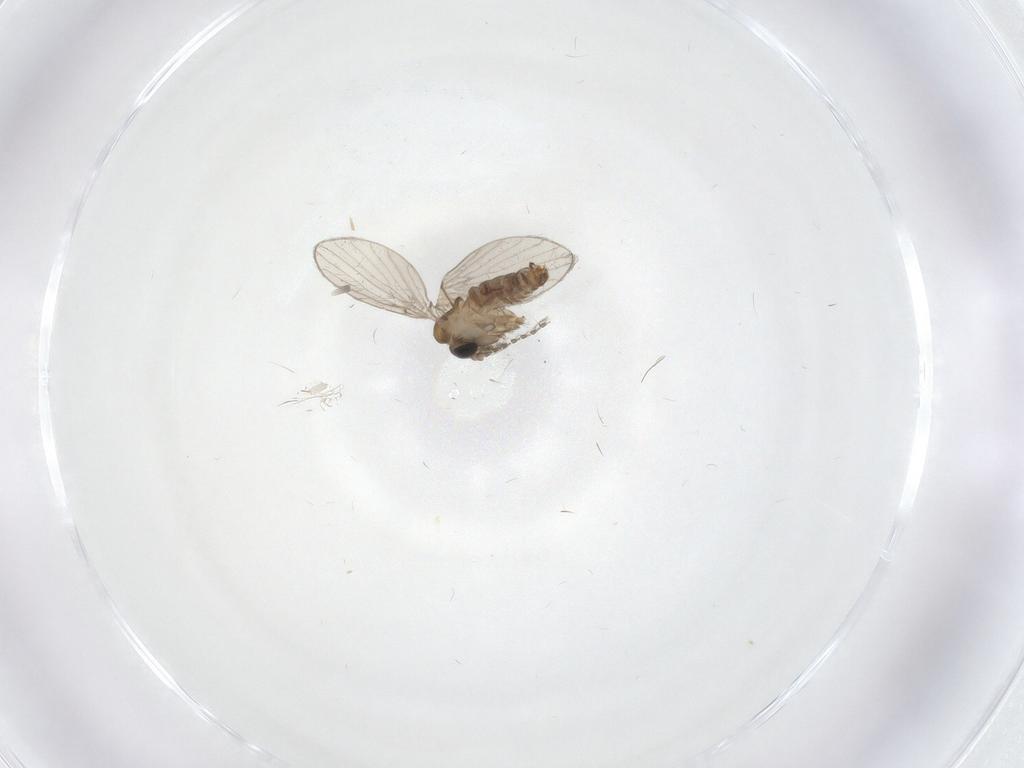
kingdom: Animalia
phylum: Arthropoda
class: Insecta
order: Diptera
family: Psychodidae
